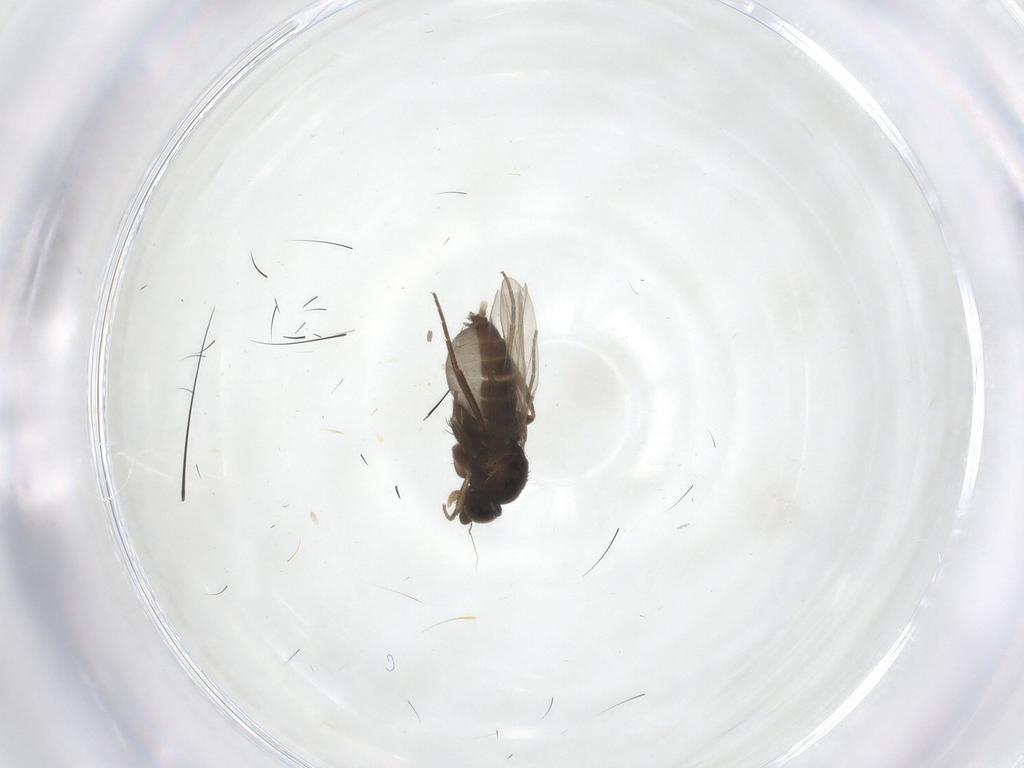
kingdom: Animalia
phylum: Arthropoda
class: Insecta
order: Diptera
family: Phoridae
